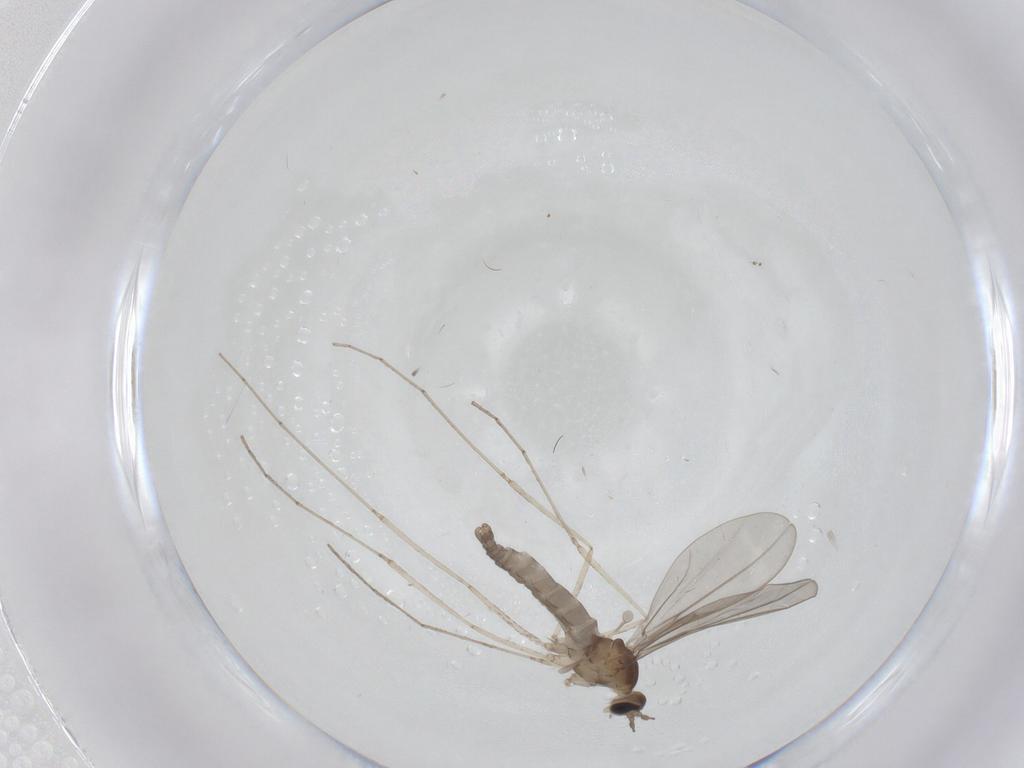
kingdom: Animalia
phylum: Arthropoda
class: Insecta
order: Diptera
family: Cecidomyiidae
